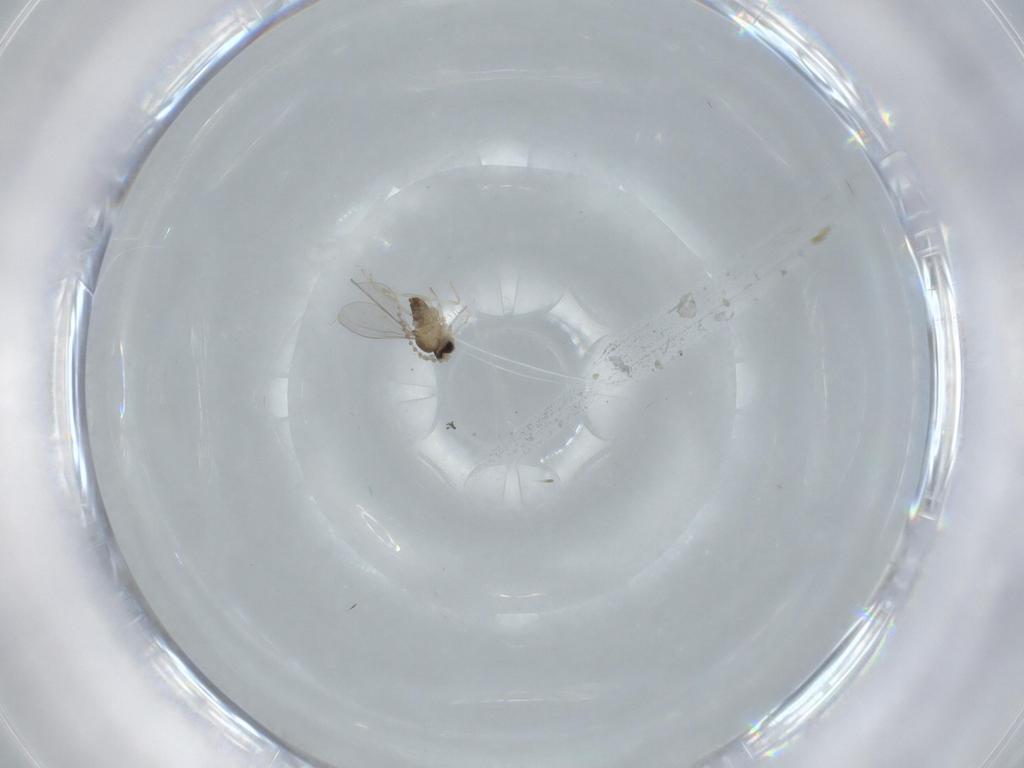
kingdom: Animalia
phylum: Arthropoda
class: Insecta
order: Diptera
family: Cecidomyiidae
